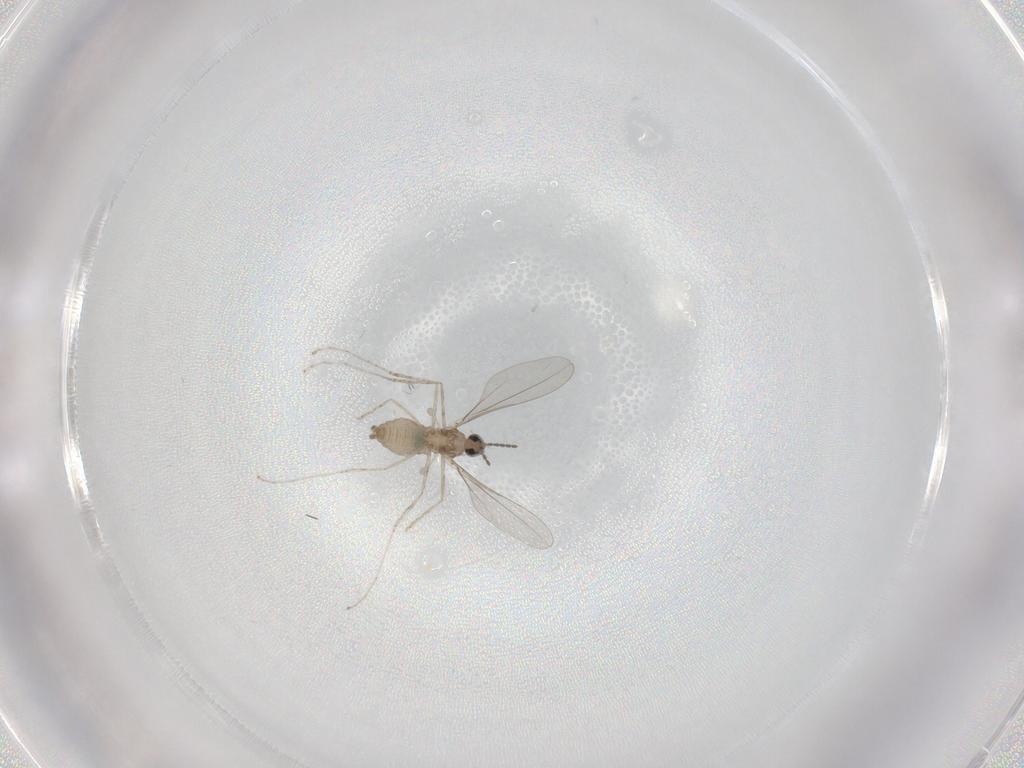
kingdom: Animalia
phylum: Arthropoda
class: Insecta
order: Diptera
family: Cecidomyiidae
